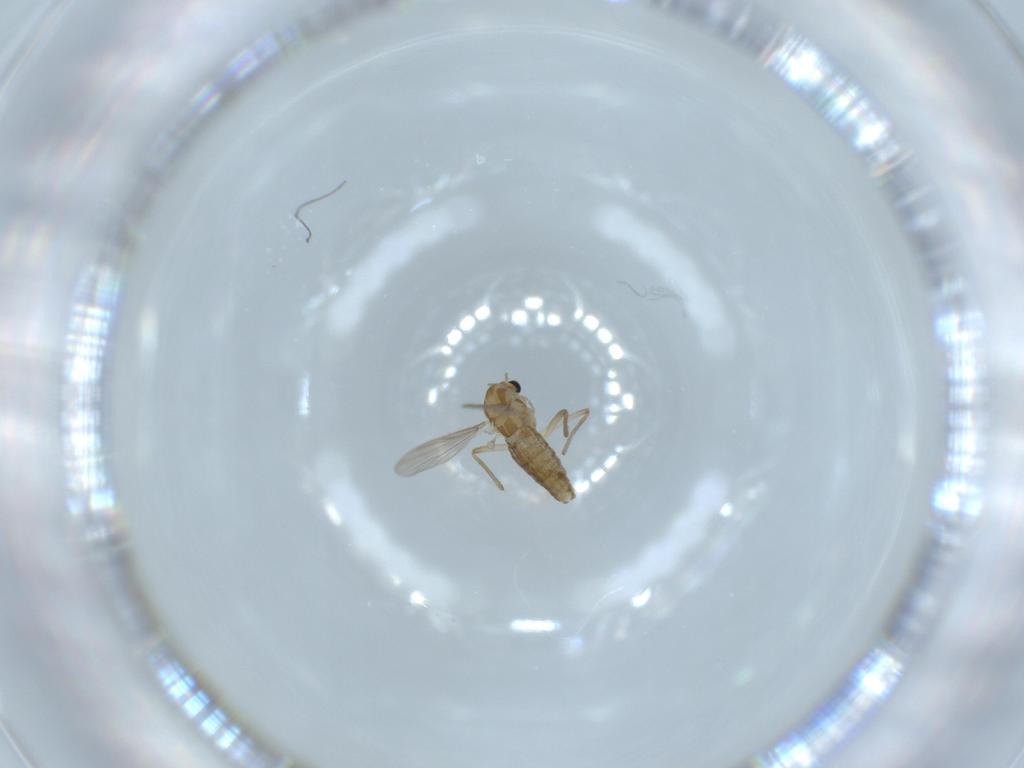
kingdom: Animalia
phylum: Arthropoda
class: Insecta
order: Diptera
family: Chironomidae
